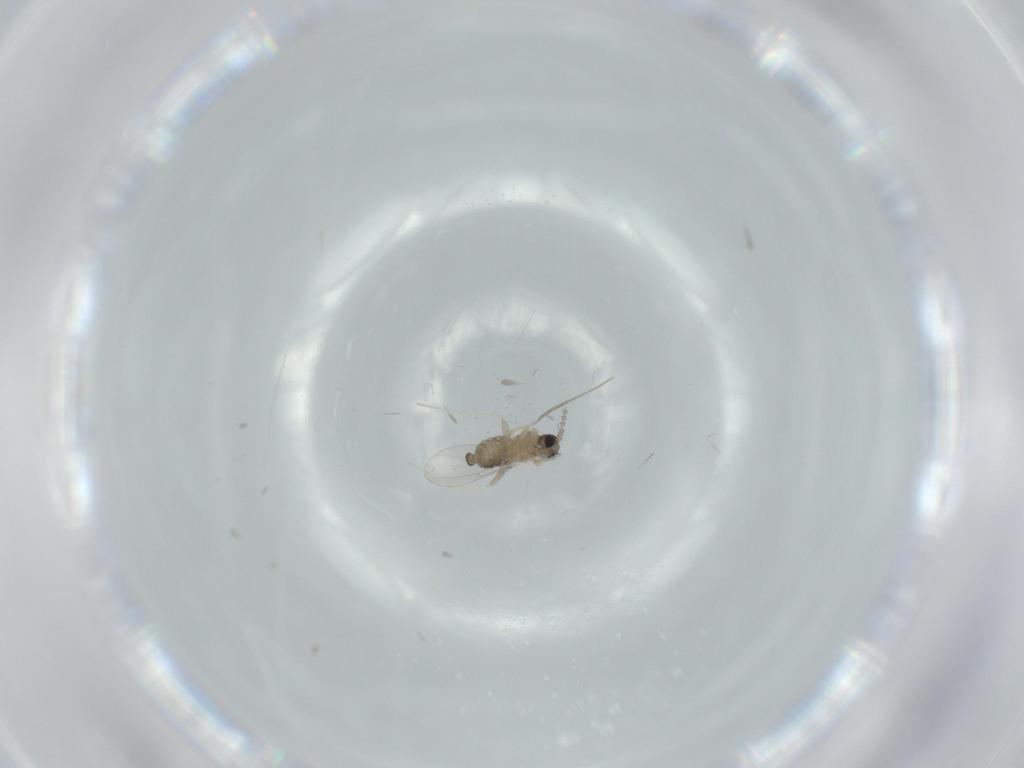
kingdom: Animalia
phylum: Arthropoda
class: Insecta
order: Diptera
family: Cecidomyiidae
